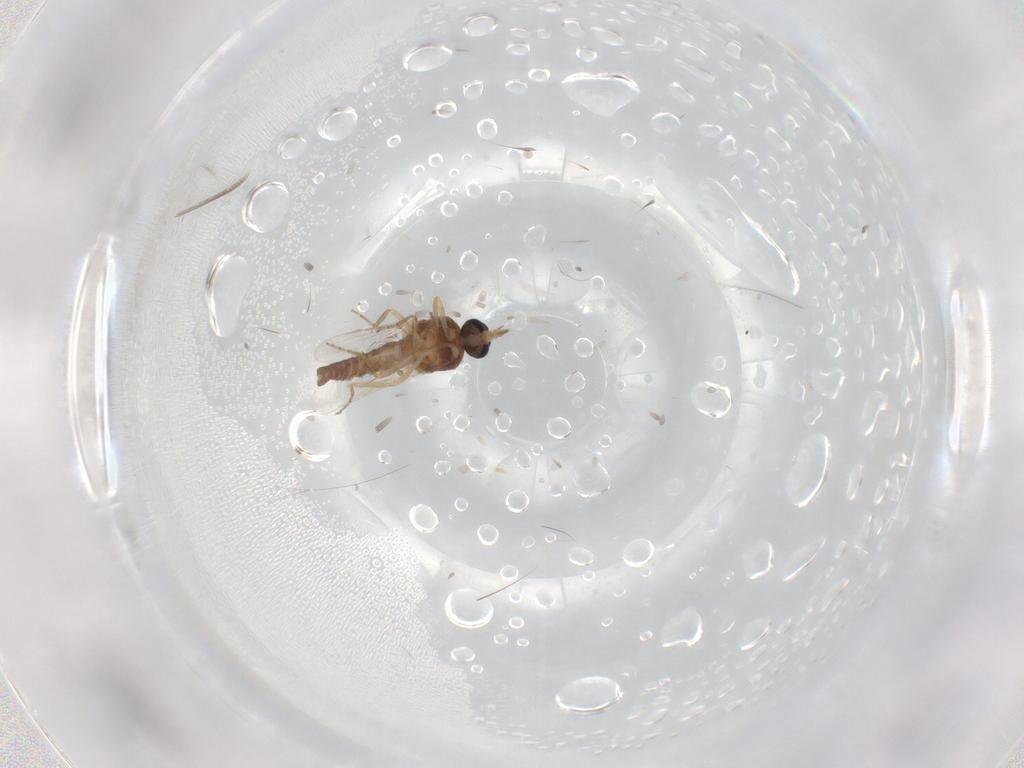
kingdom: Animalia
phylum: Arthropoda
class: Insecta
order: Diptera
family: Ceratopogonidae
